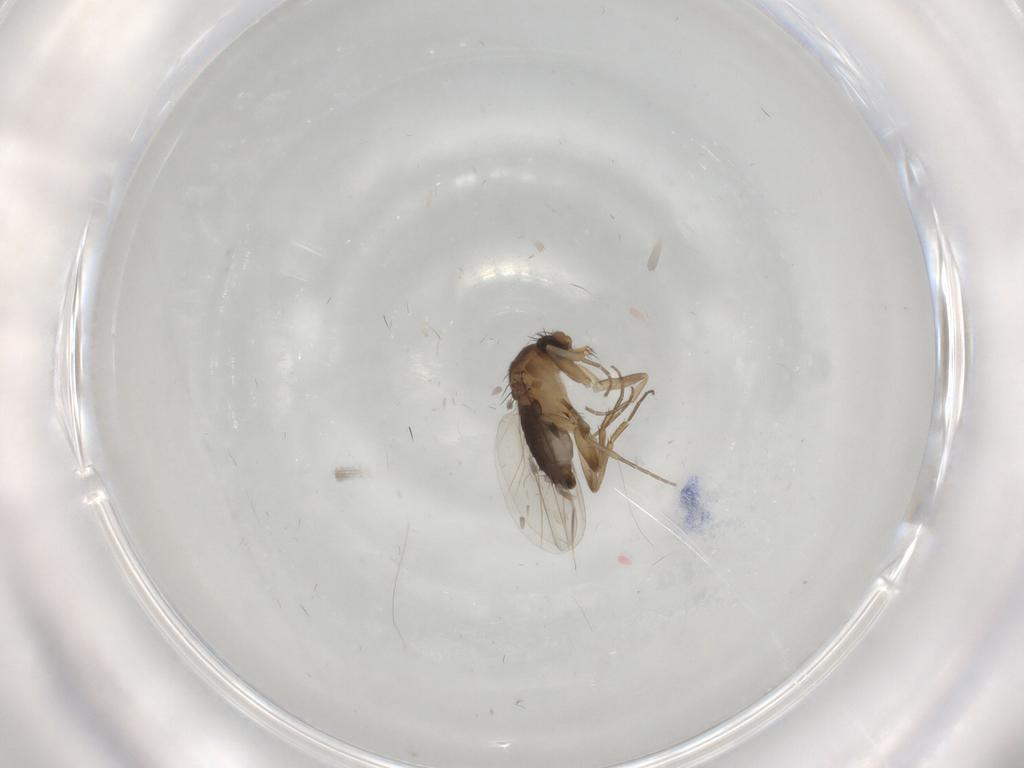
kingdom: Animalia
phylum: Arthropoda
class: Insecta
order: Diptera
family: Phoridae
